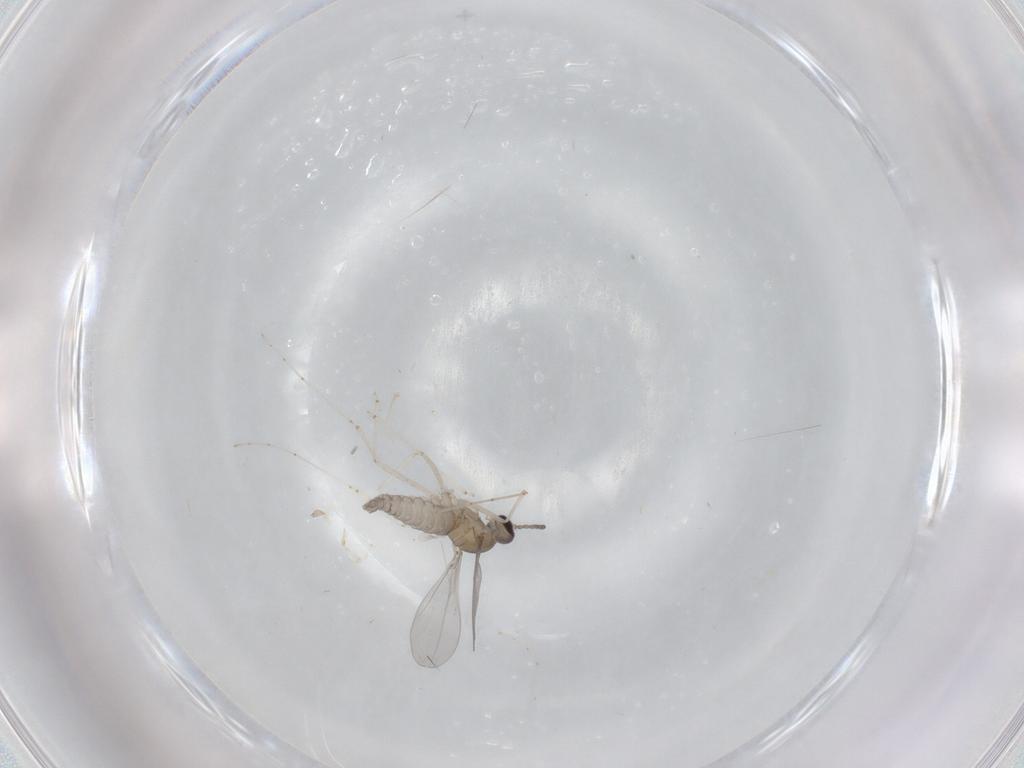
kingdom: Animalia
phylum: Arthropoda
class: Insecta
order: Diptera
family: Cecidomyiidae
